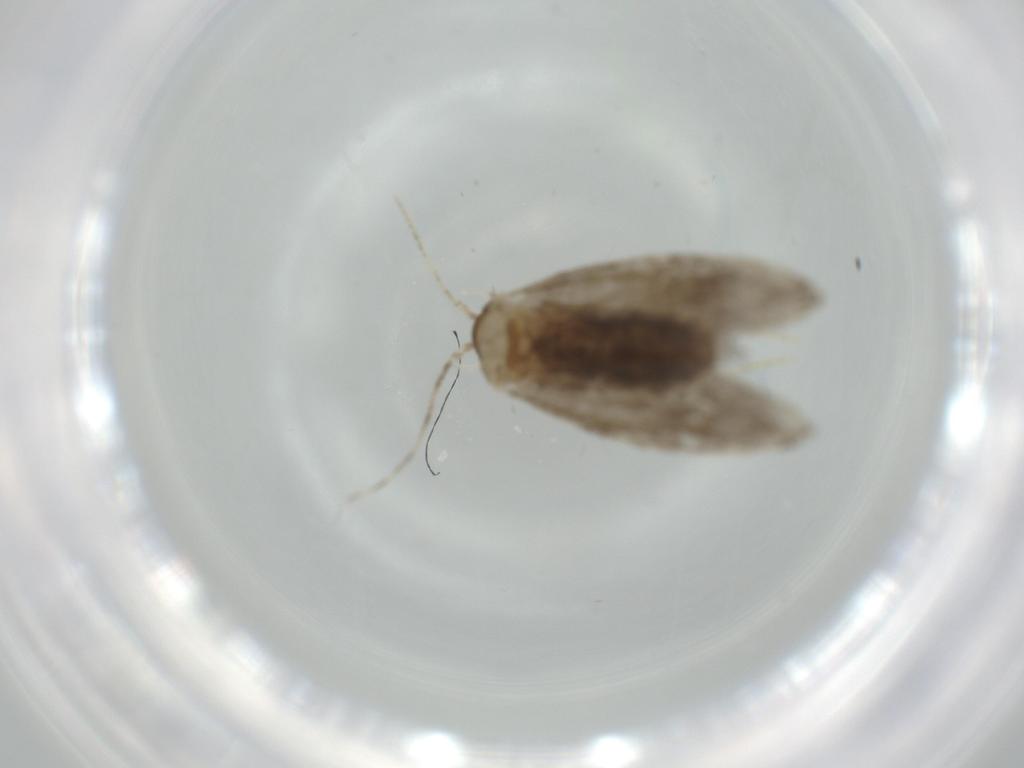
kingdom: Animalia
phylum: Arthropoda
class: Insecta
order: Lepidoptera
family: Tineidae
